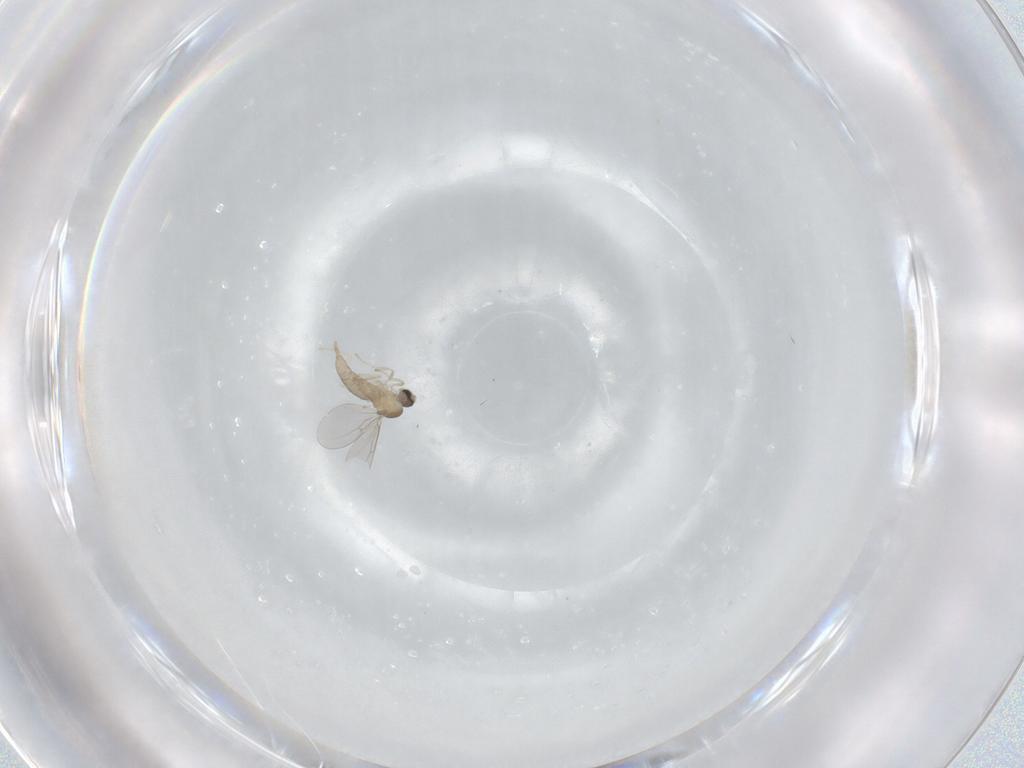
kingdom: Animalia
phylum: Arthropoda
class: Insecta
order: Diptera
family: Cecidomyiidae
